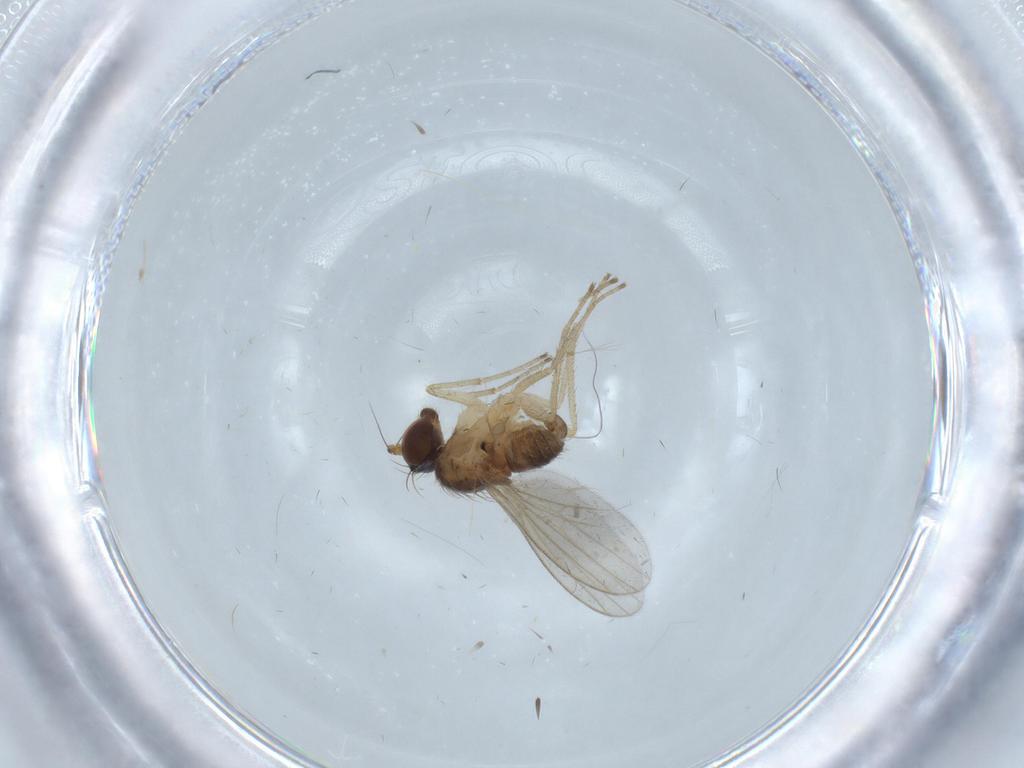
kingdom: Animalia
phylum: Arthropoda
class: Insecta
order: Diptera
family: Dolichopodidae
